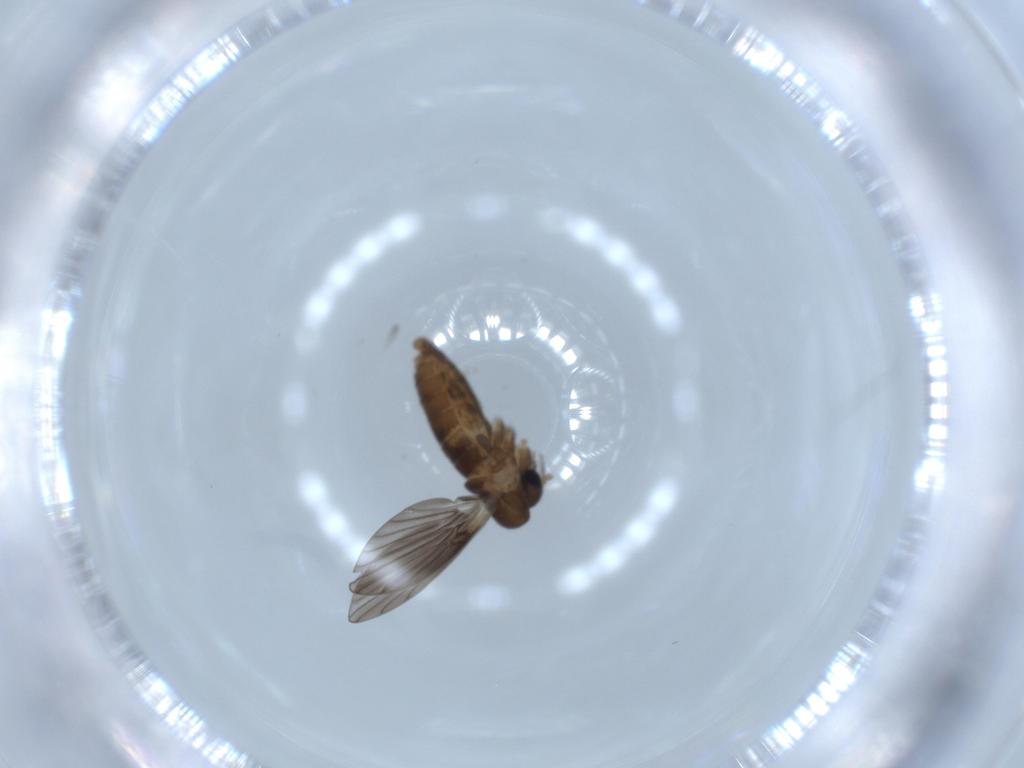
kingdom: Animalia
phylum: Arthropoda
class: Insecta
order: Diptera
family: Psychodidae
